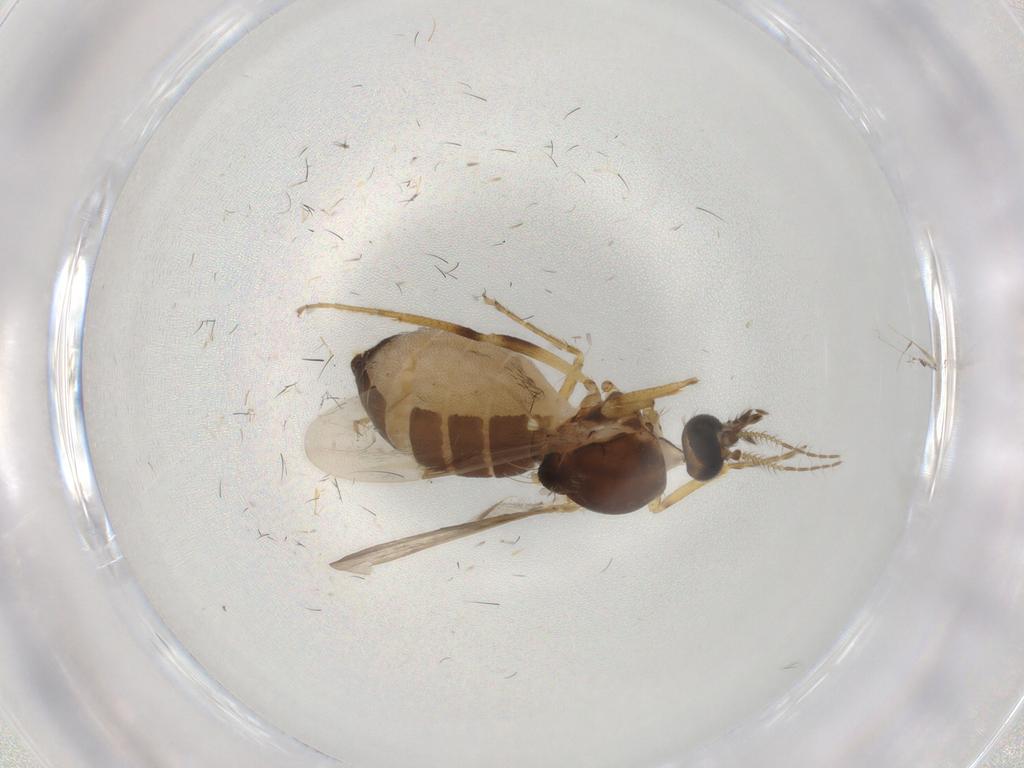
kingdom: Animalia
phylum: Arthropoda
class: Insecta
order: Diptera
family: Ceratopogonidae
